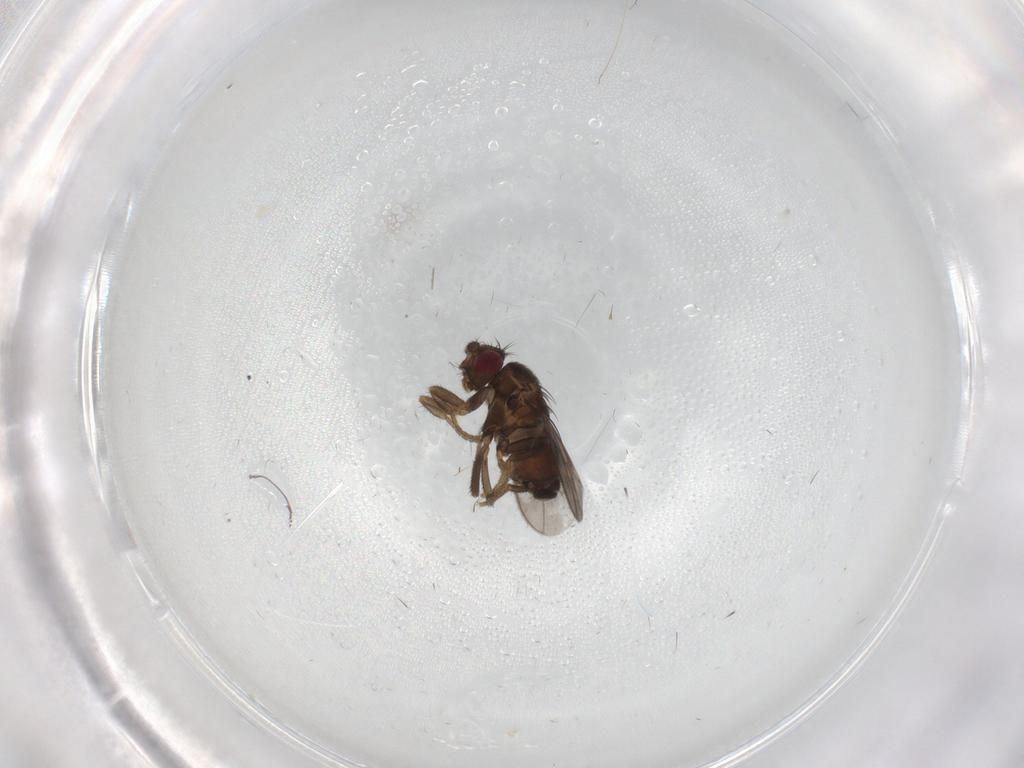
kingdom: Animalia
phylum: Arthropoda
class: Insecta
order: Diptera
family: Sphaeroceridae
